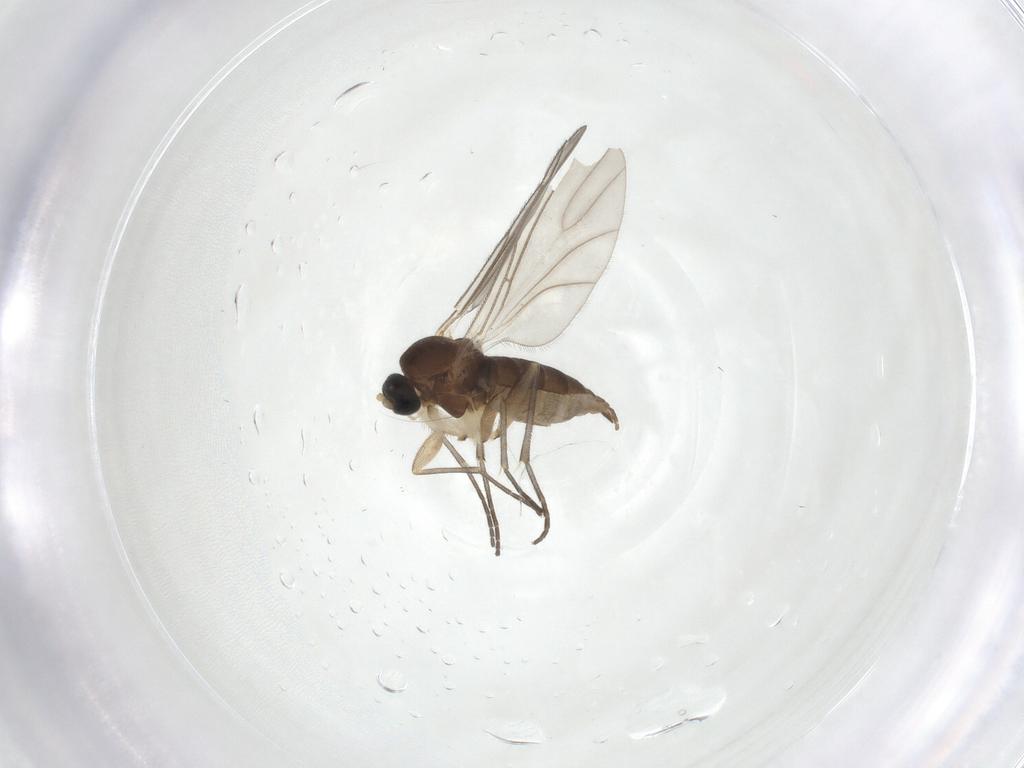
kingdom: Animalia
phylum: Arthropoda
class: Insecta
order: Diptera
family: Sciaridae
